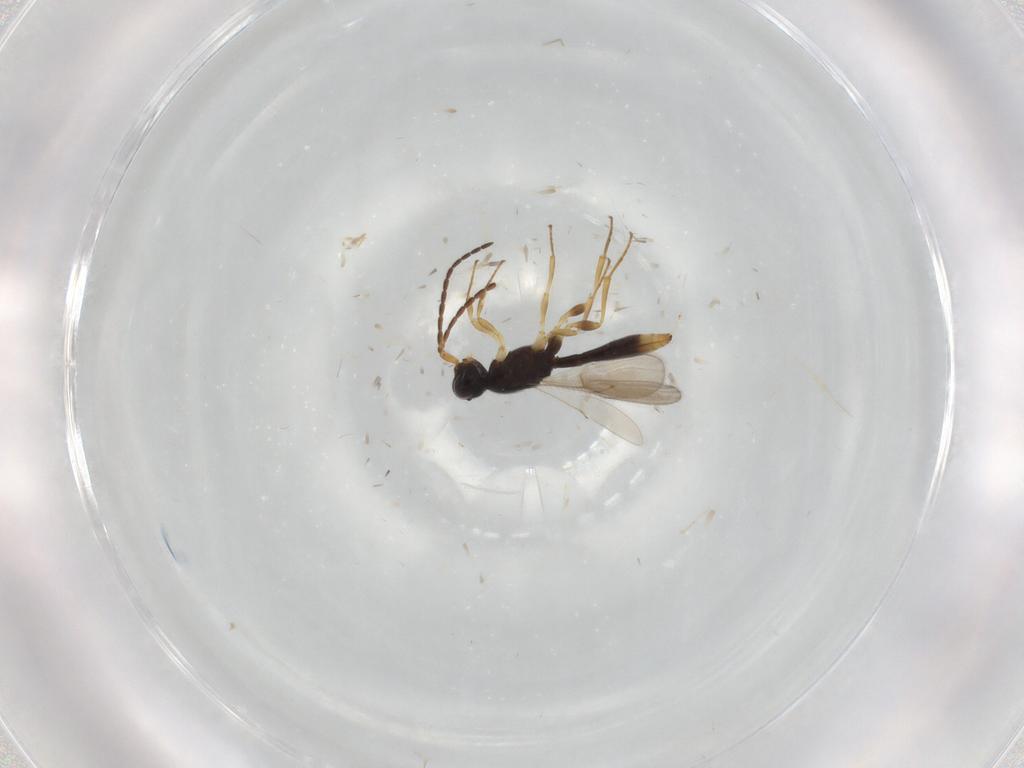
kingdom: Animalia
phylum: Arthropoda
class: Insecta
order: Hymenoptera
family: Scelionidae
